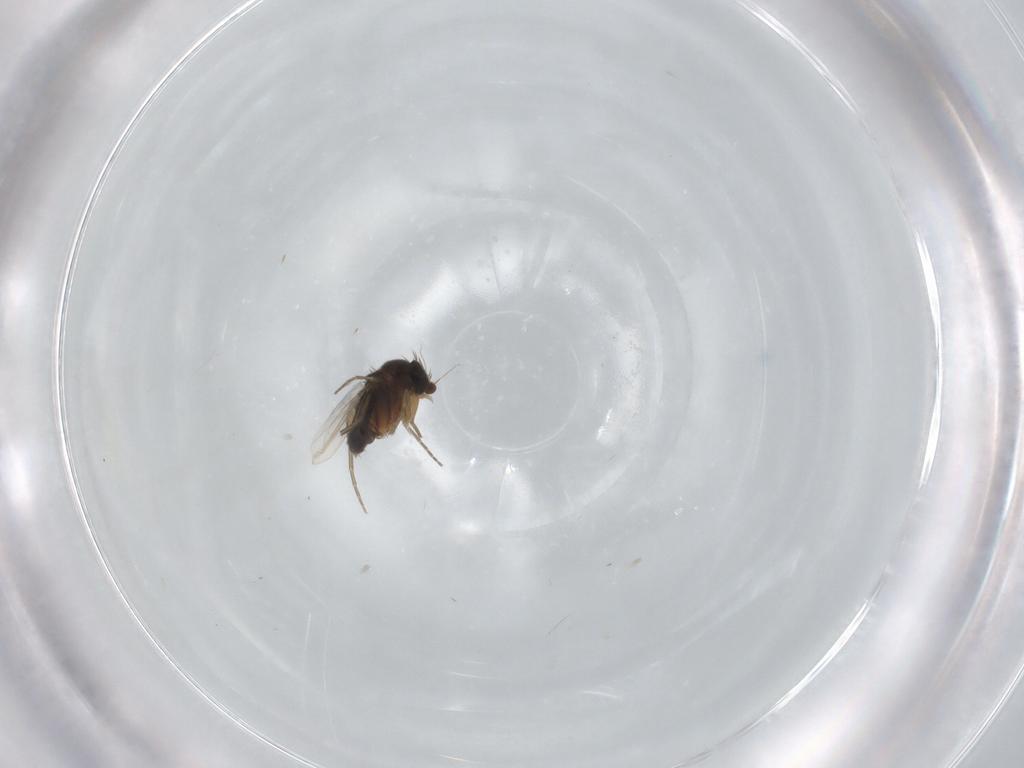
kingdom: Animalia
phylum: Arthropoda
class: Insecta
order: Diptera
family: Phoridae
